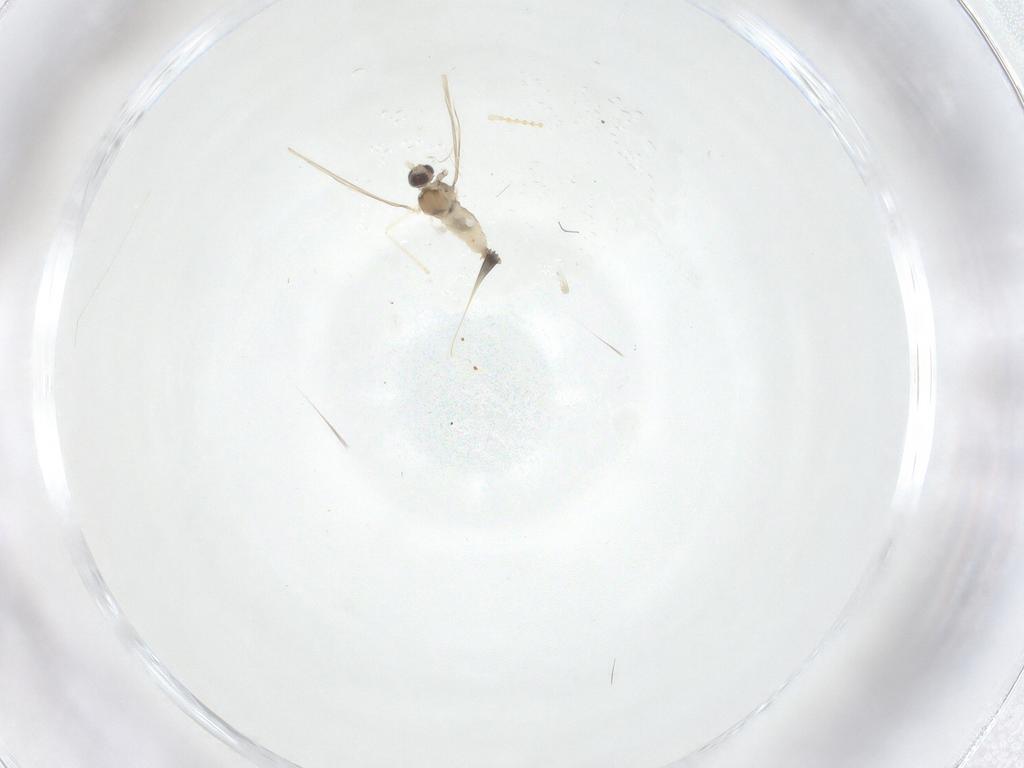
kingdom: Animalia
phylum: Arthropoda
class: Insecta
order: Diptera
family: Cecidomyiidae
